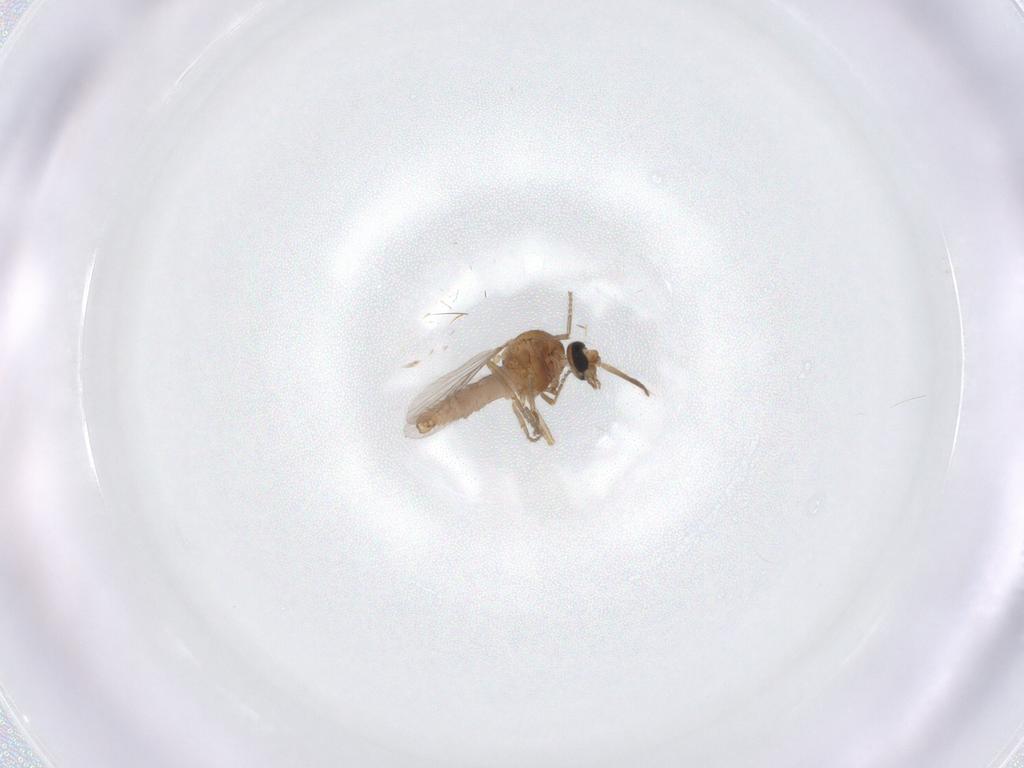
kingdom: Animalia
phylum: Arthropoda
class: Insecta
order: Diptera
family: Ceratopogonidae
